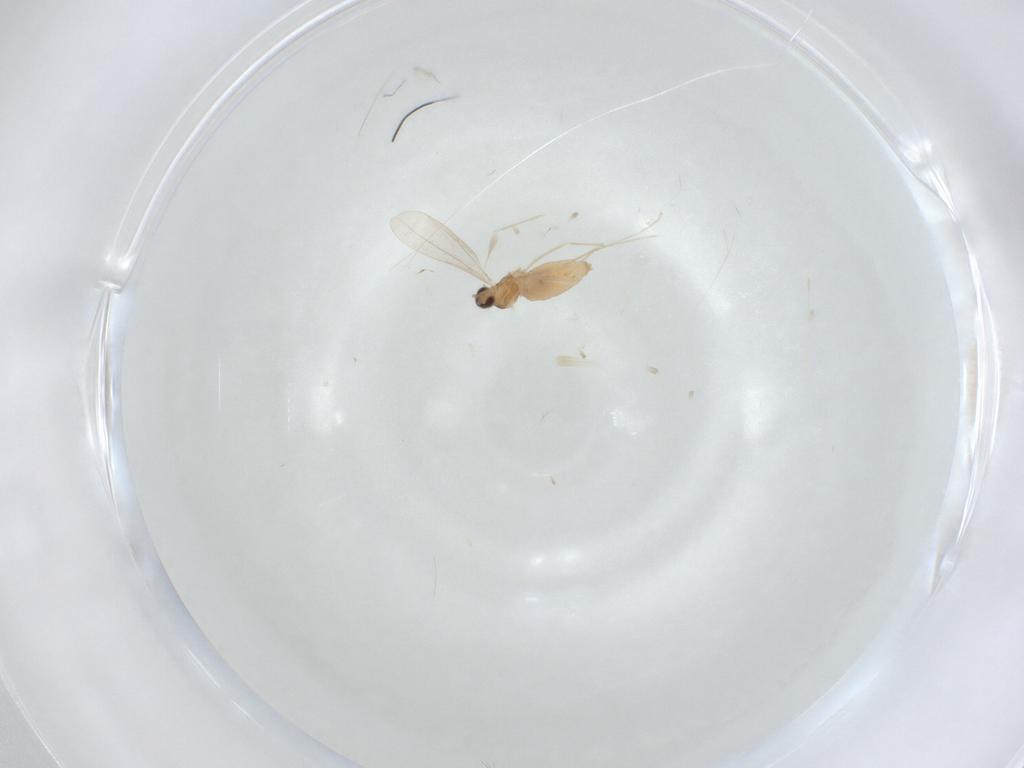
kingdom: Animalia
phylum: Arthropoda
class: Insecta
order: Diptera
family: Cecidomyiidae
